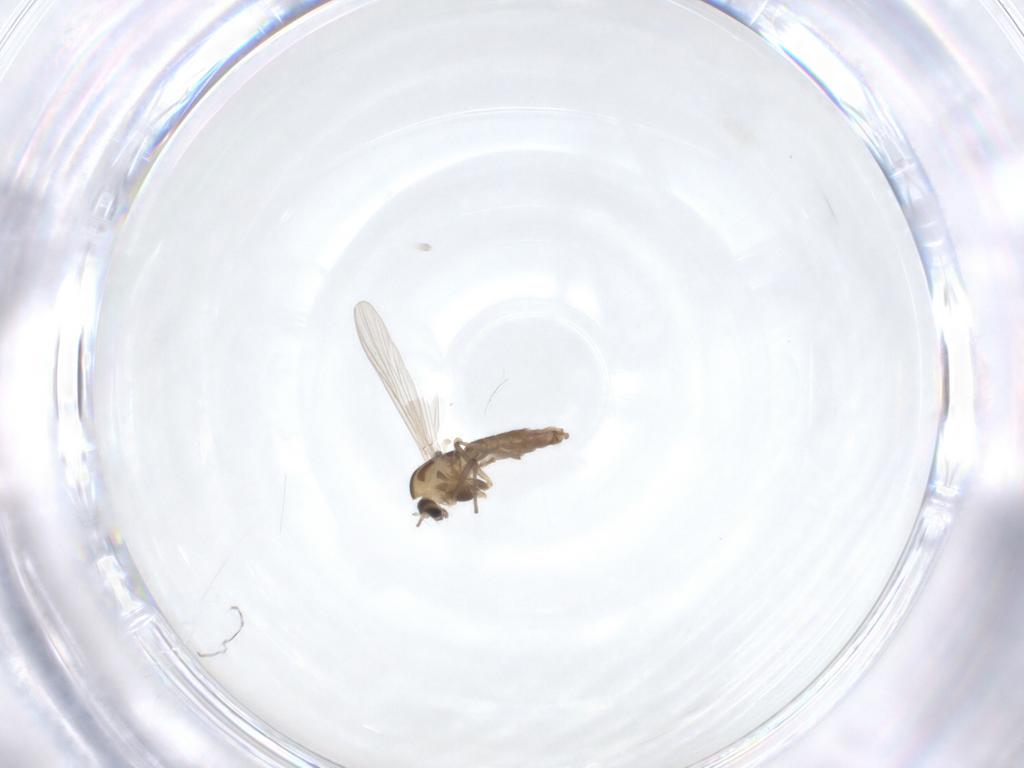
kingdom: Animalia
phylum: Arthropoda
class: Insecta
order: Diptera
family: Chironomidae
